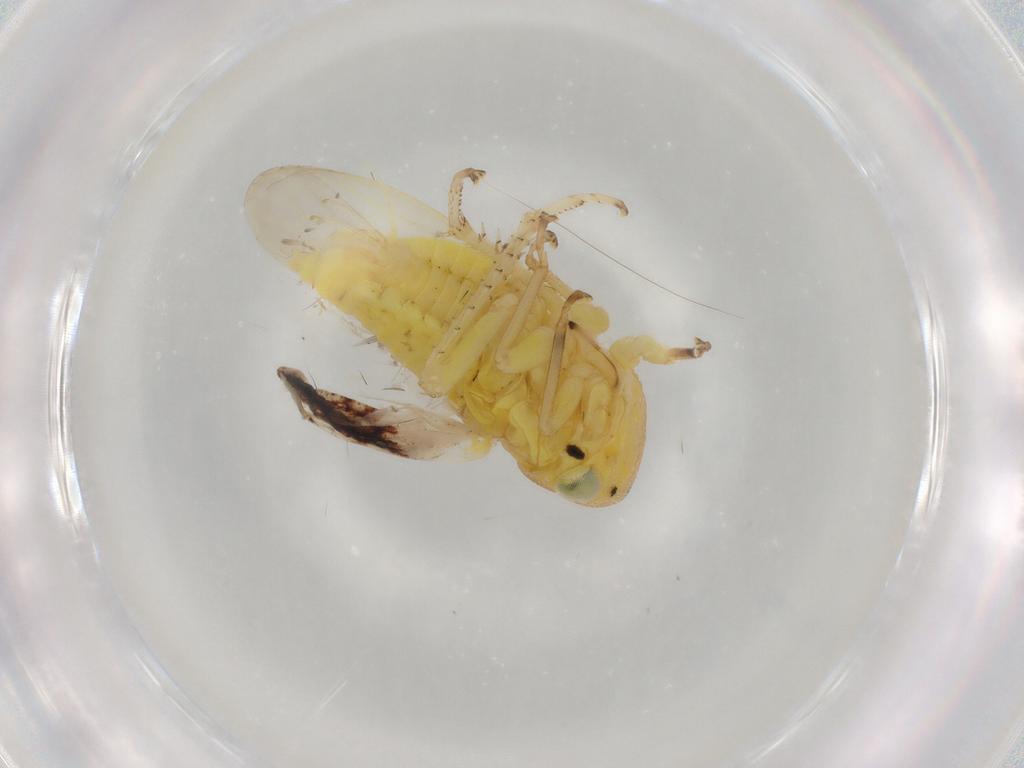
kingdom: Animalia
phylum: Arthropoda
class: Insecta
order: Hemiptera
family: Cicadellidae
